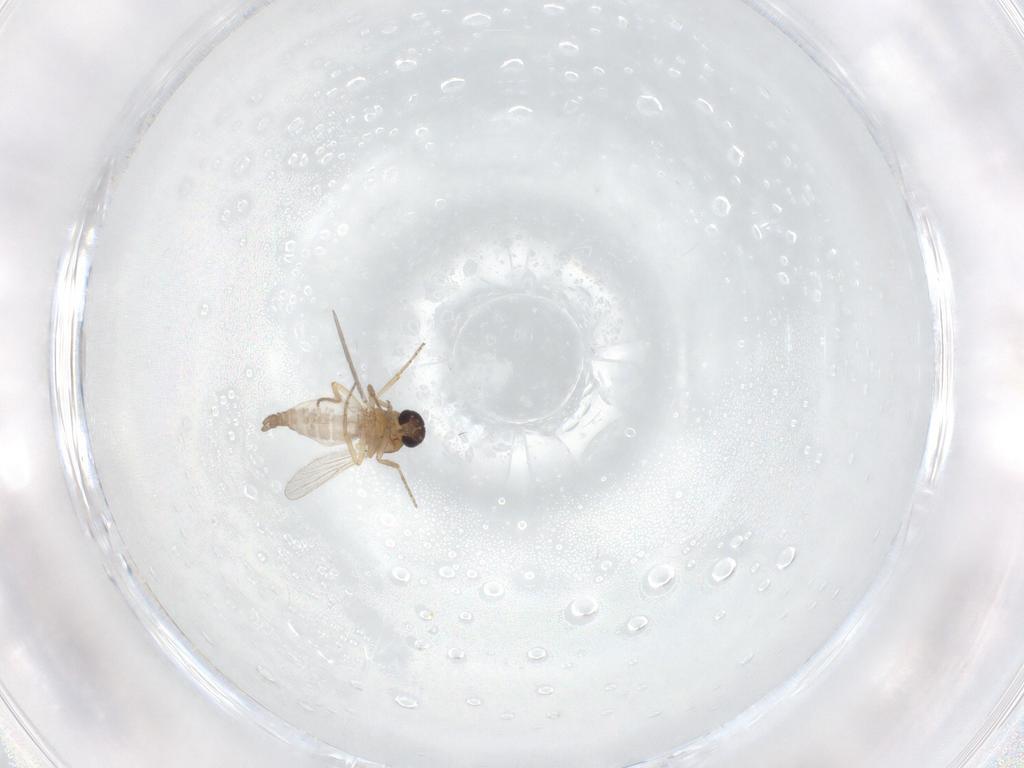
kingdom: Animalia
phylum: Arthropoda
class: Insecta
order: Diptera
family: Ceratopogonidae
